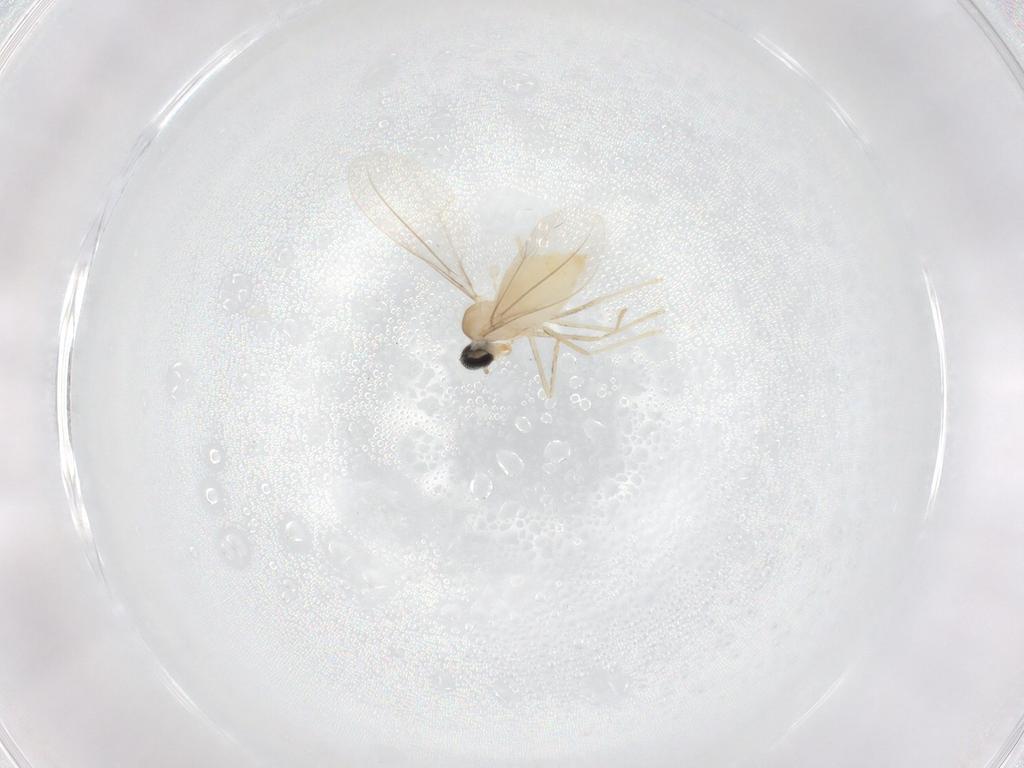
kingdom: Animalia
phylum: Arthropoda
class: Insecta
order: Diptera
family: Cecidomyiidae
